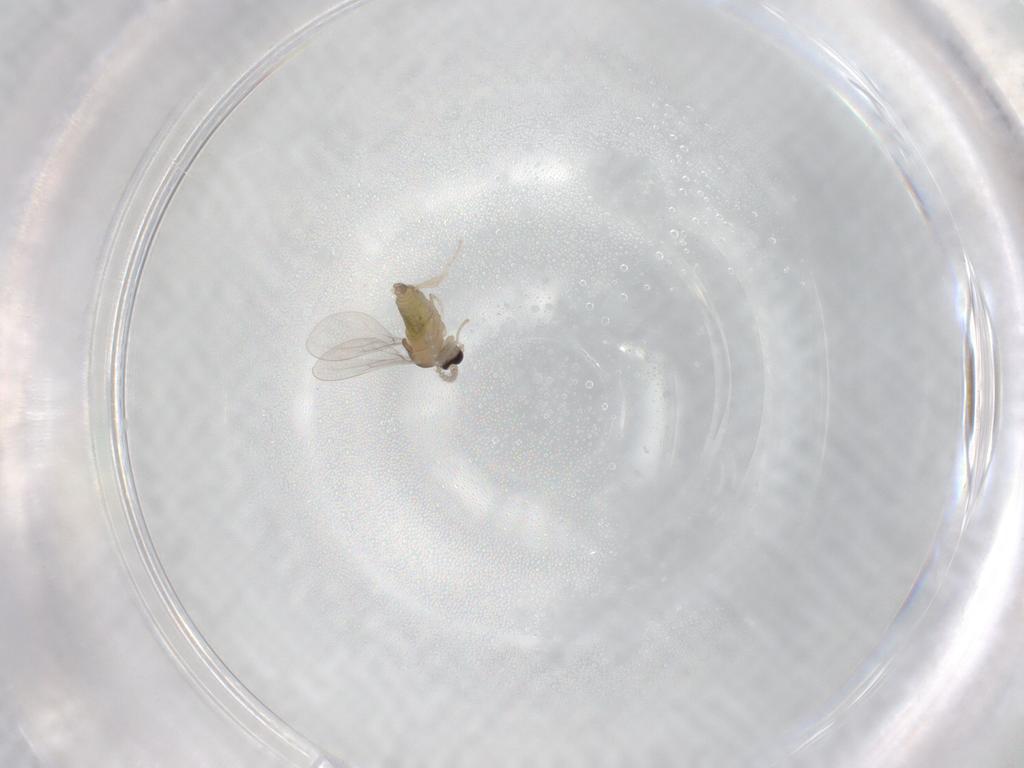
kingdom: Animalia
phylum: Arthropoda
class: Insecta
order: Diptera
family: Cecidomyiidae
